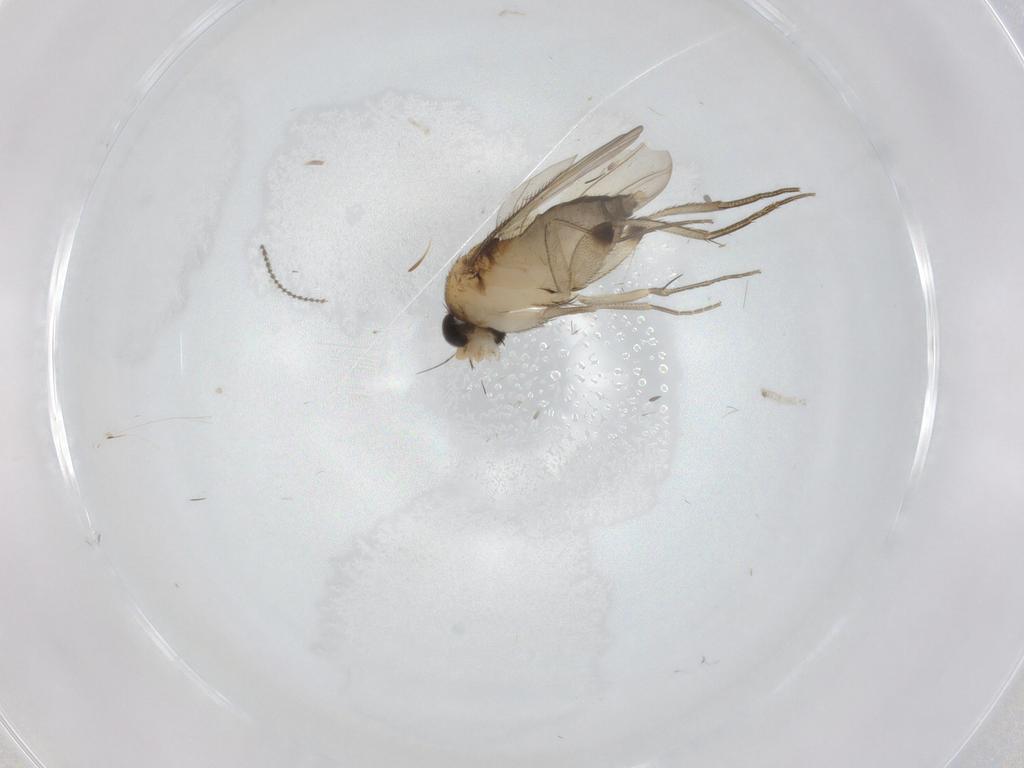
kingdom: Animalia
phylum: Arthropoda
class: Insecta
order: Diptera
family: Phoridae
